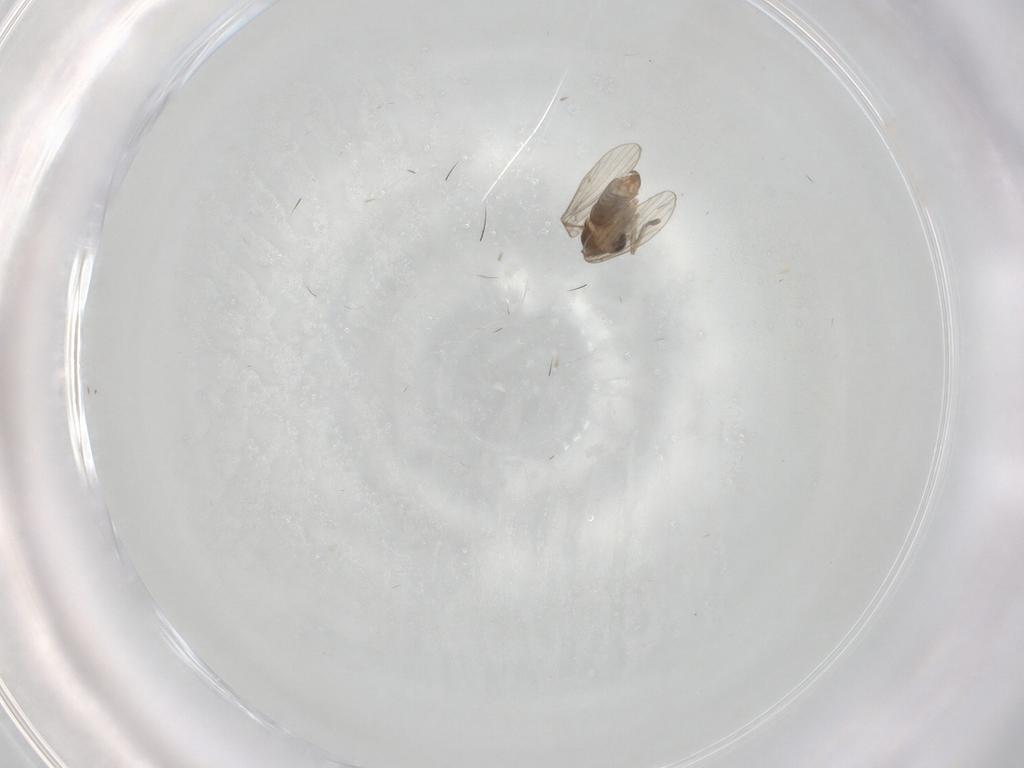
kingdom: Animalia
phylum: Arthropoda
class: Insecta
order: Diptera
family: Chironomidae
